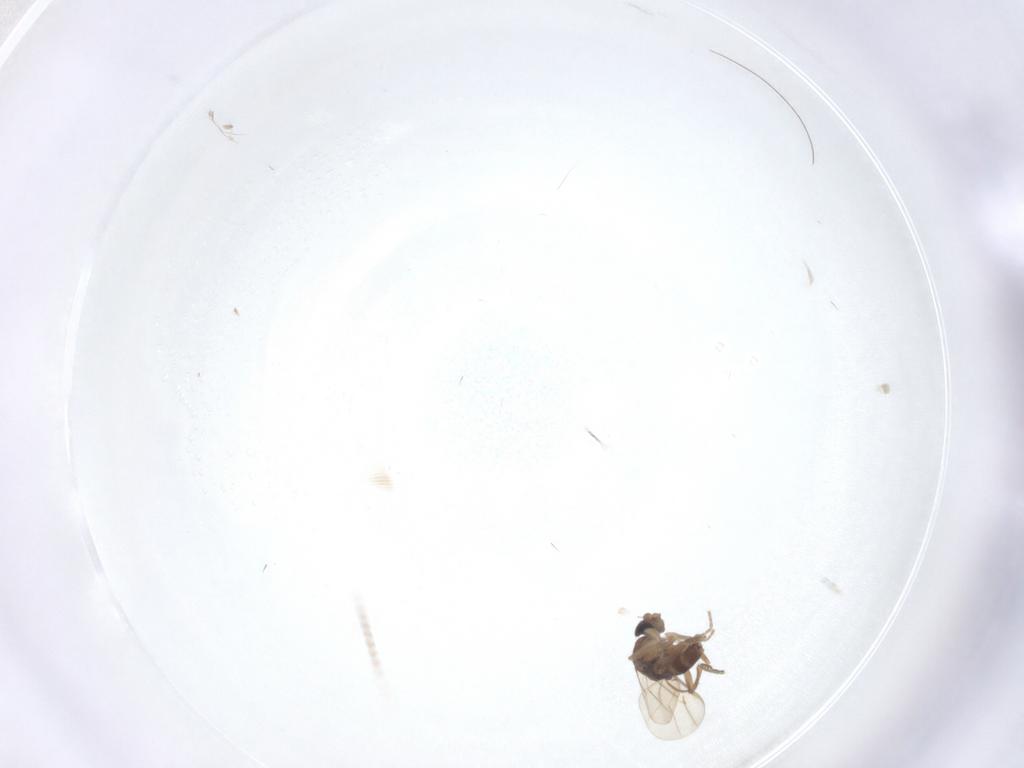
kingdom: Animalia
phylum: Arthropoda
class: Insecta
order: Diptera
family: Phoridae
